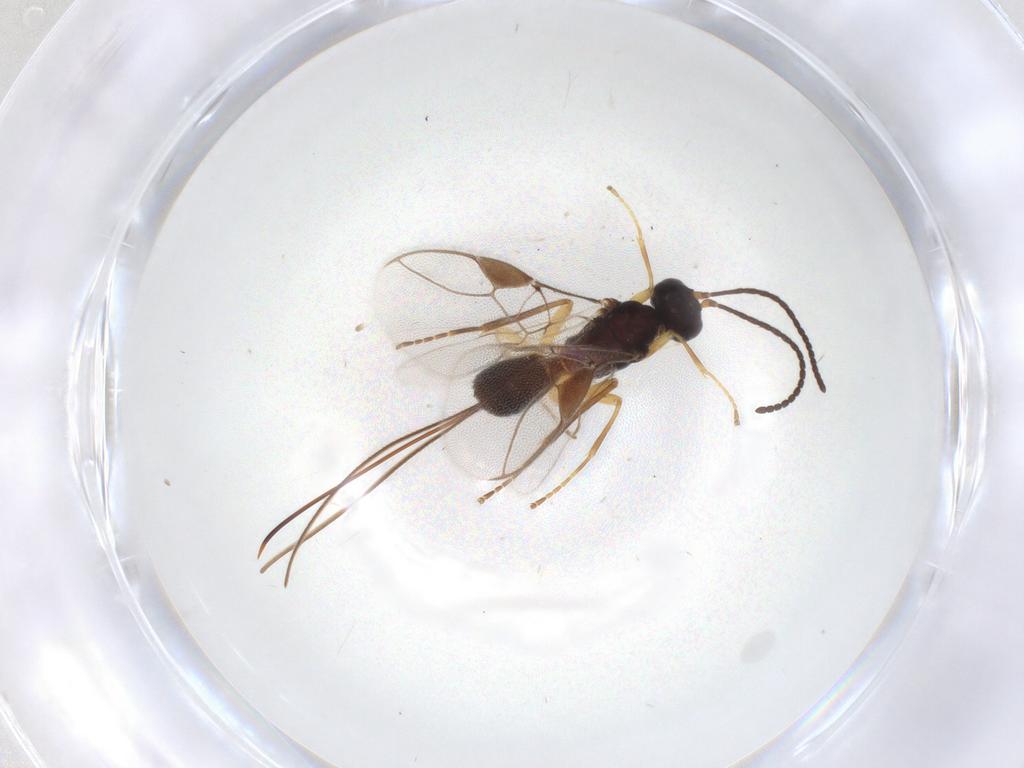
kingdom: Animalia
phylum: Arthropoda
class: Insecta
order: Hymenoptera
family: Braconidae
